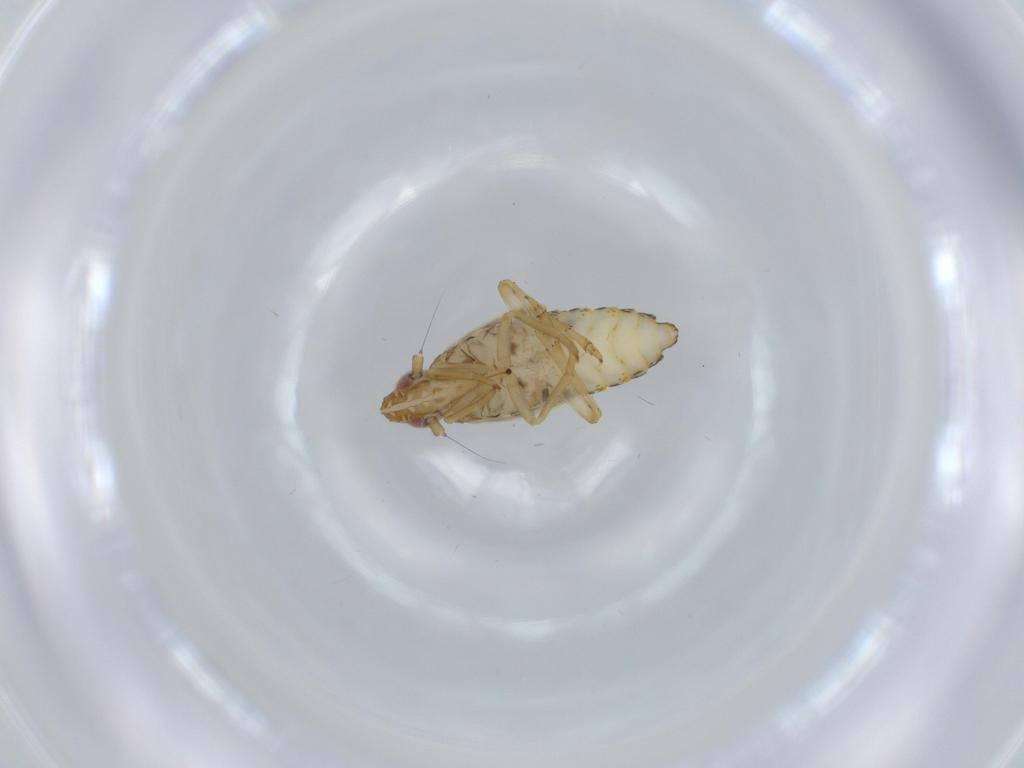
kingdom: Animalia
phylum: Arthropoda
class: Insecta
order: Hemiptera
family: Delphacidae
